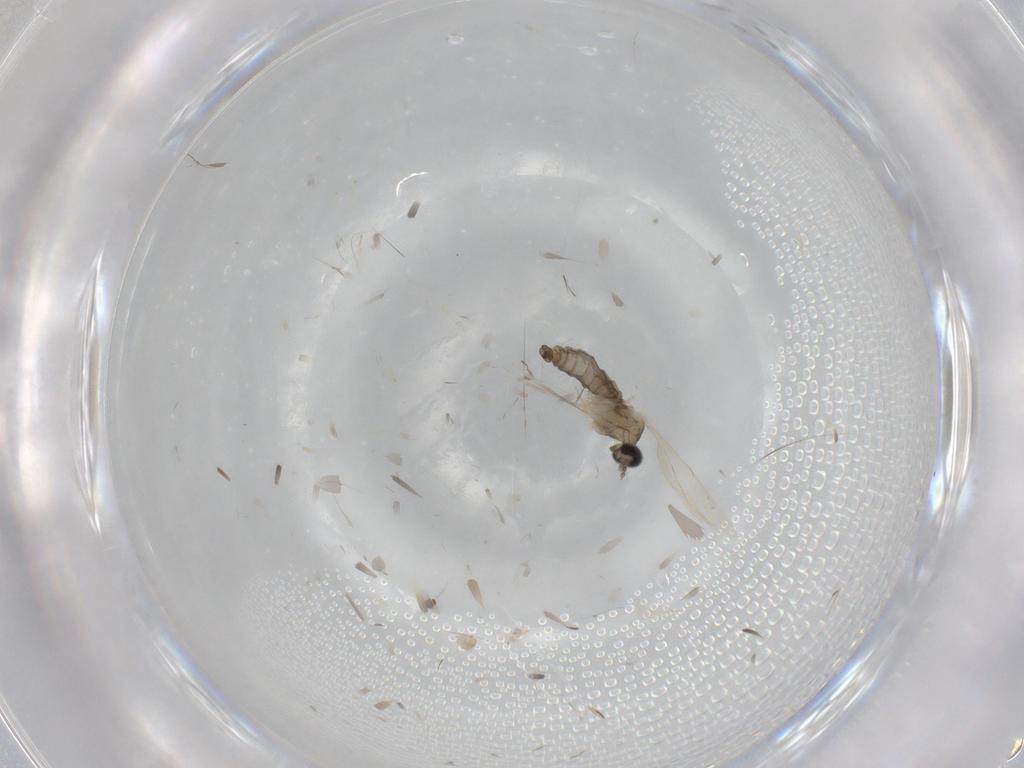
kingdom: Animalia
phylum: Arthropoda
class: Insecta
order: Diptera
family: Cecidomyiidae
